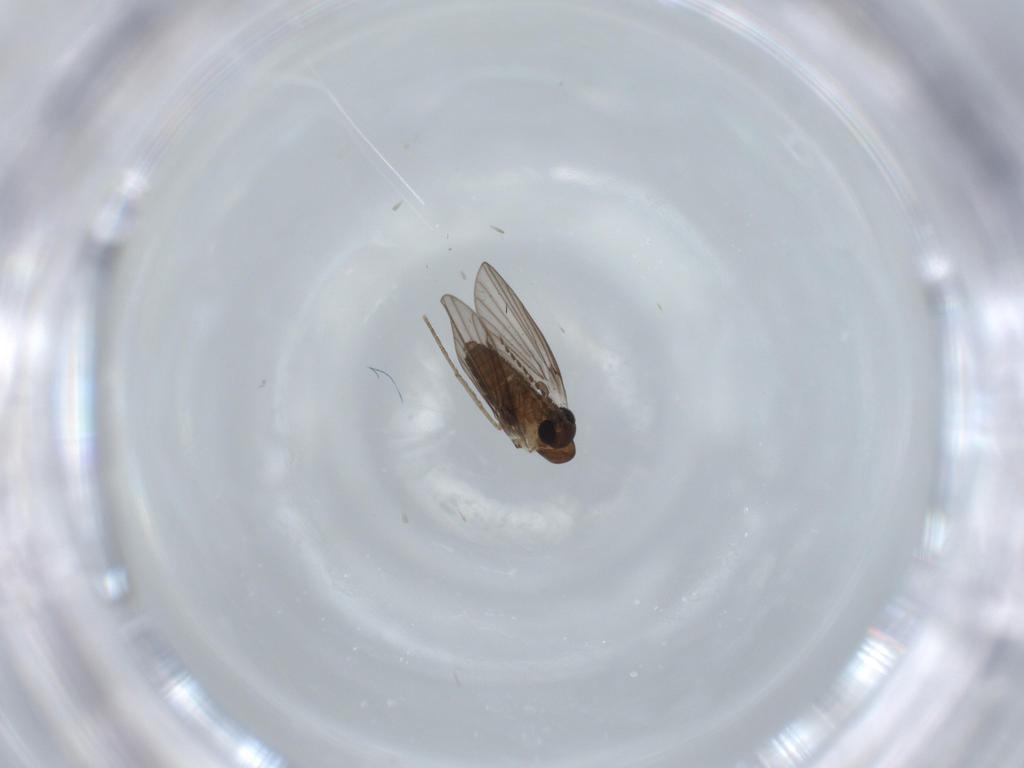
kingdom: Animalia
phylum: Arthropoda
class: Insecta
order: Diptera
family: Psychodidae
